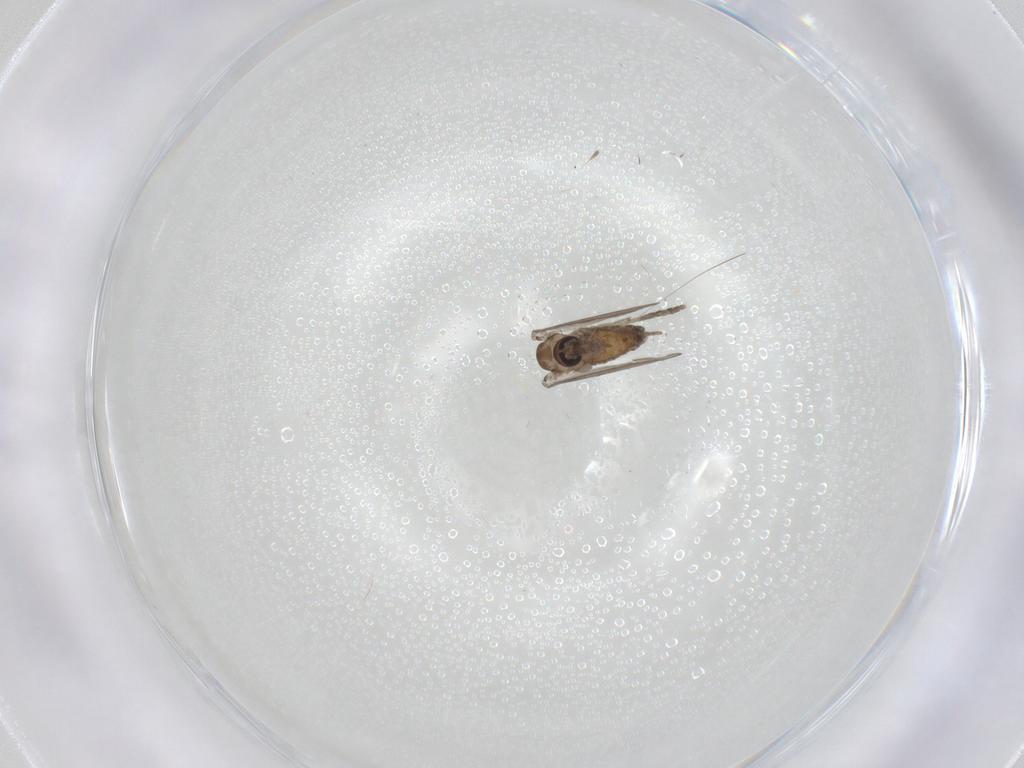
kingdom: Animalia
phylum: Arthropoda
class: Insecta
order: Diptera
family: Psychodidae
